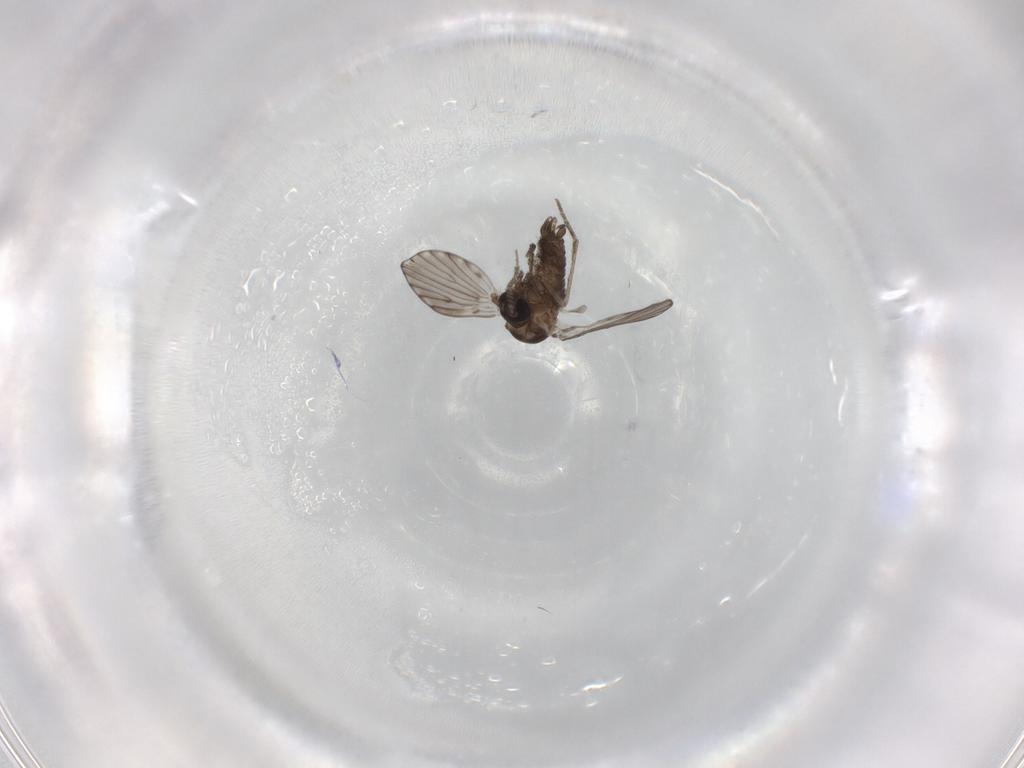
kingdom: Animalia
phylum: Arthropoda
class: Insecta
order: Diptera
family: Psychodidae
